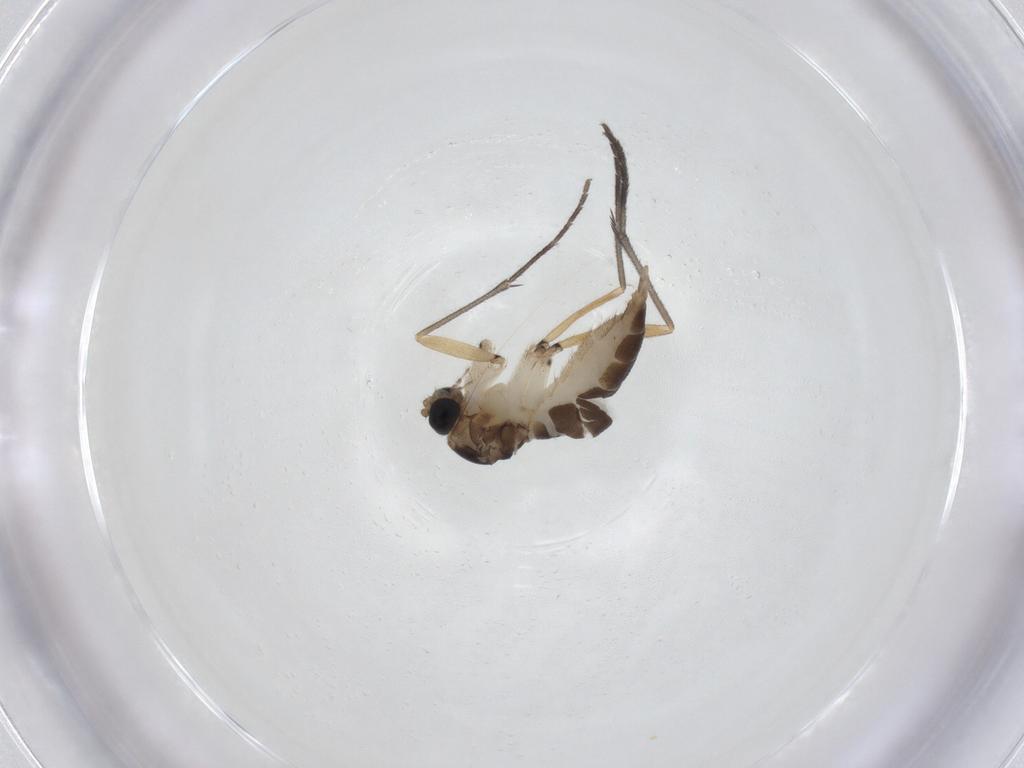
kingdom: Animalia
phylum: Arthropoda
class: Insecta
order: Diptera
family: Sciaridae
